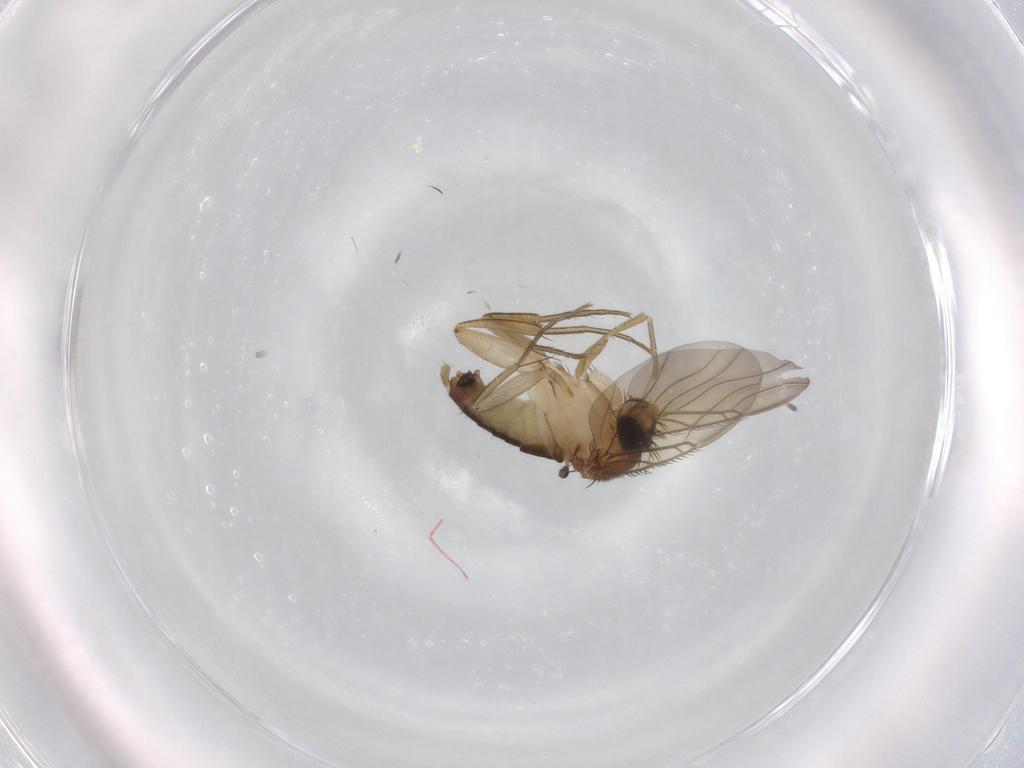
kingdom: Animalia
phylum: Arthropoda
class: Insecta
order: Diptera
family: Phoridae
